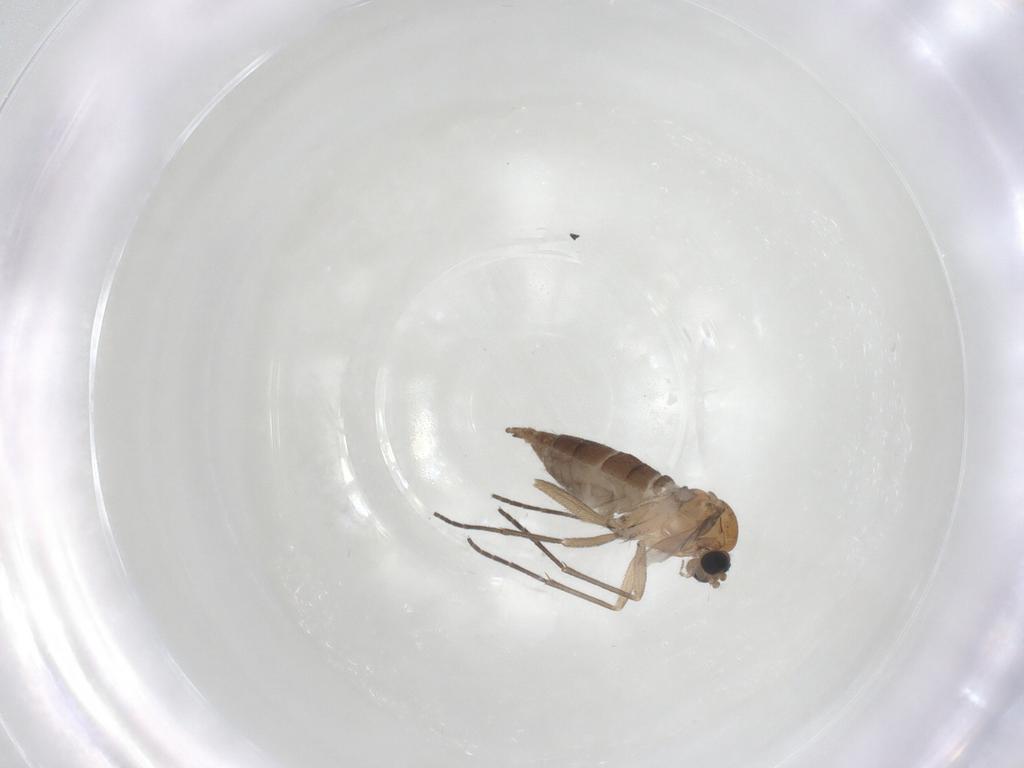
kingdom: Animalia
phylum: Arthropoda
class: Insecta
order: Diptera
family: Sciaridae
